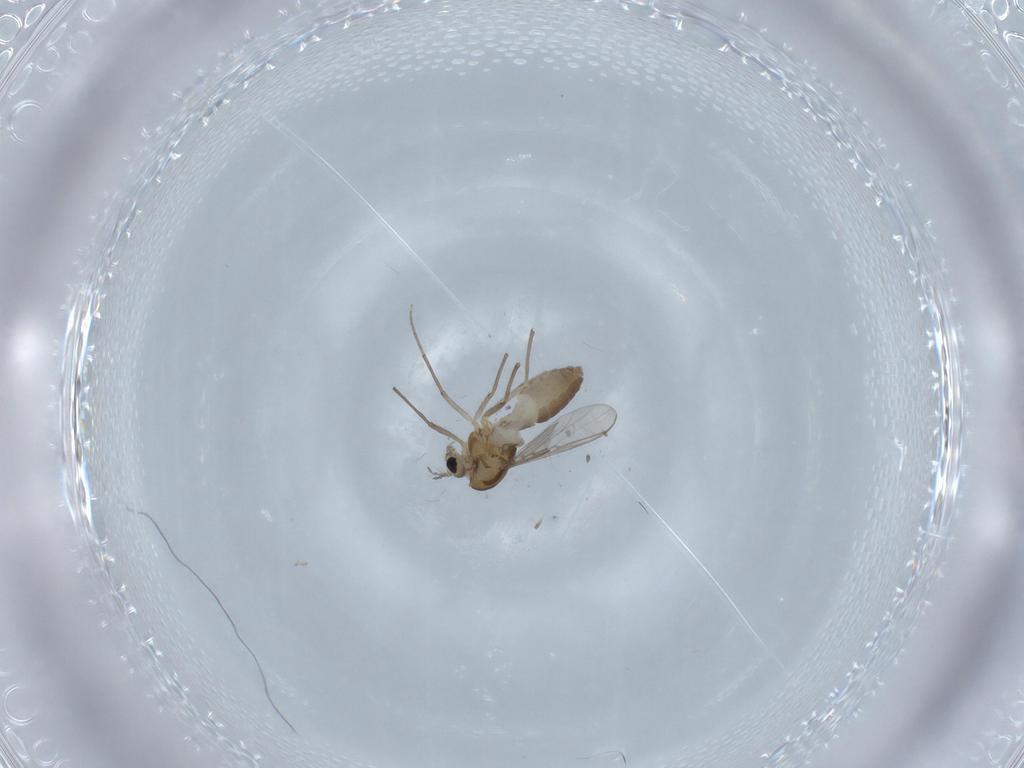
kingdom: Animalia
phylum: Arthropoda
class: Insecta
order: Diptera
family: Chironomidae
